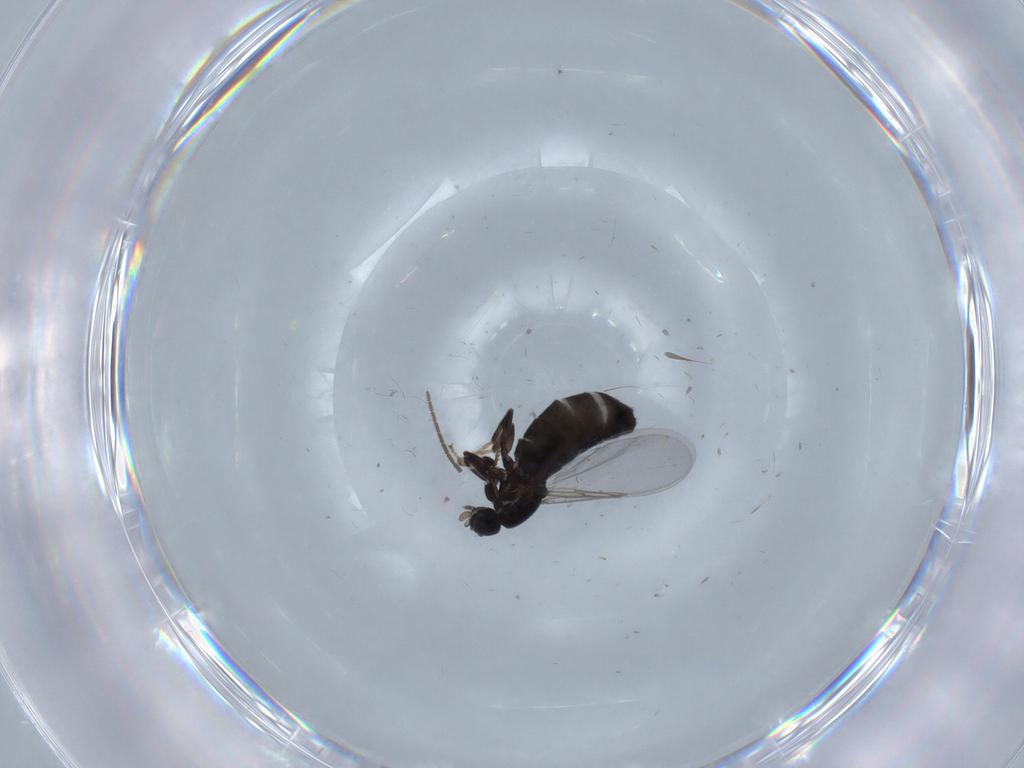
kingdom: Animalia
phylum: Arthropoda
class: Insecta
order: Diptera
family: Scatopsidae
